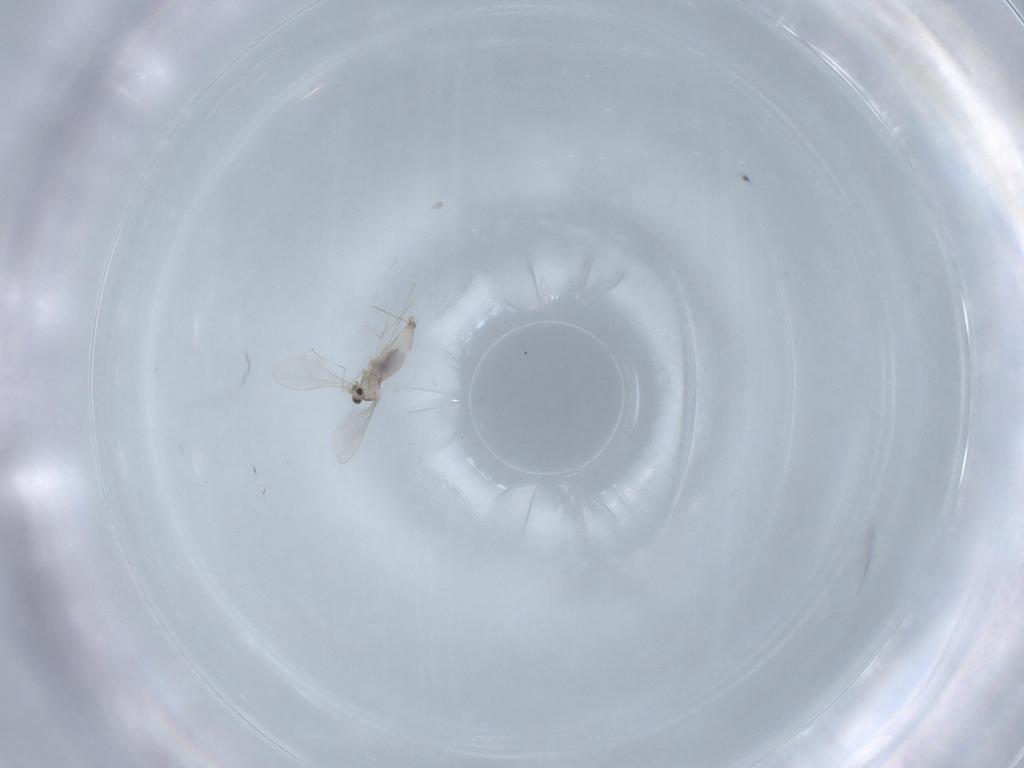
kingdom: Animalia
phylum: Arthropoda
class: Insecta
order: Diptera
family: Cecidomyiidae
